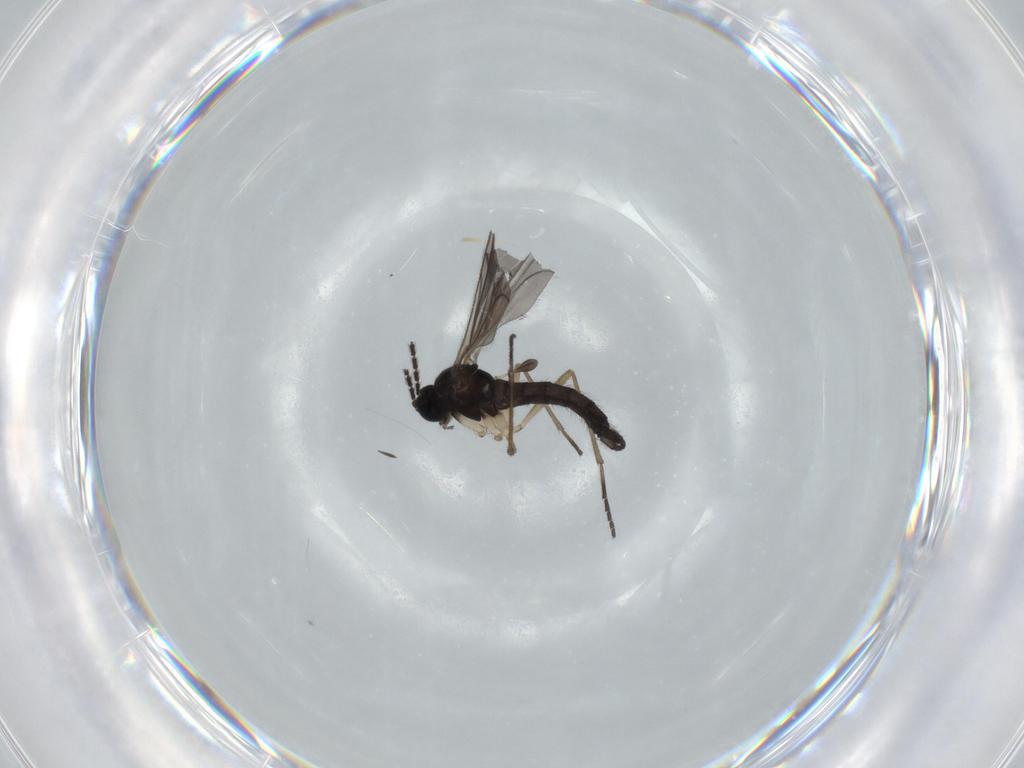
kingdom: Animalia
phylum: Arthropoda
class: Insecta
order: Diptera
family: Sciaridae
